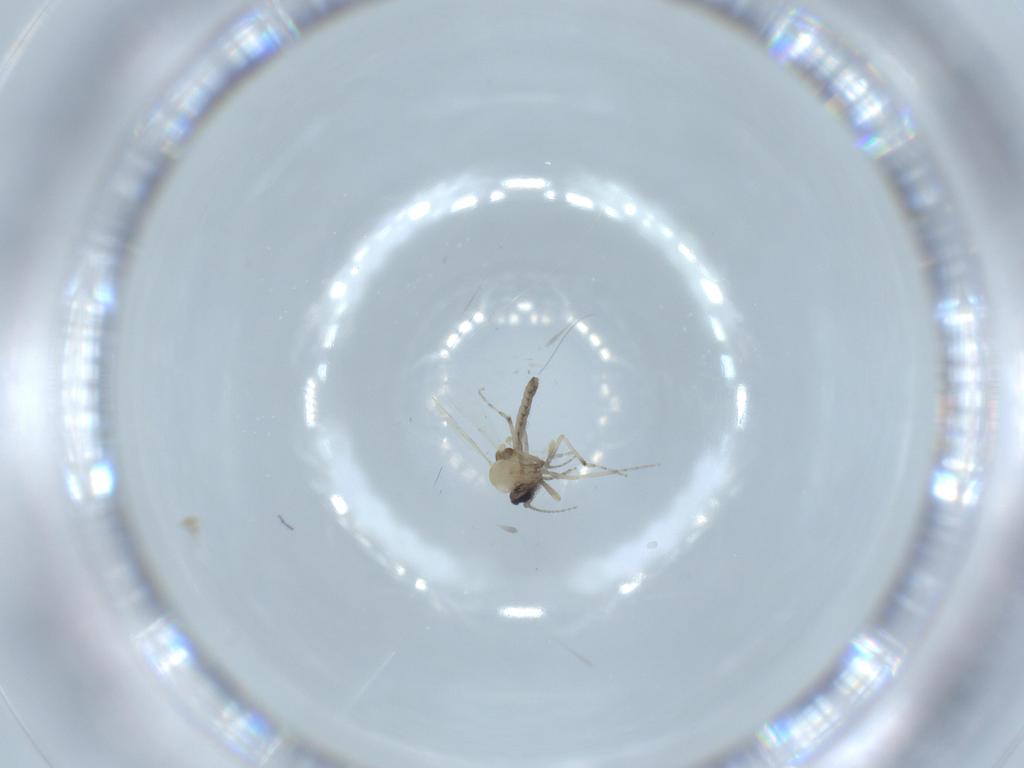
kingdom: Animalia
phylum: Arthropoda
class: Insecta
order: Diptera
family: Ceratopogonidae
